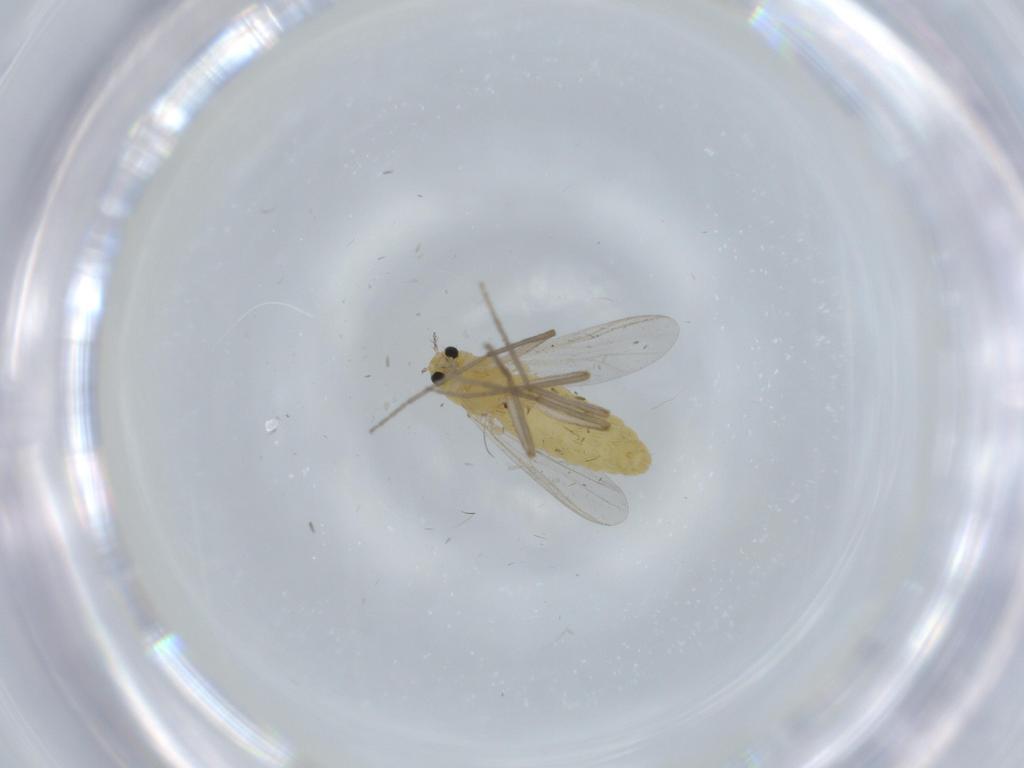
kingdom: Animalia
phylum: Arthropoda
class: Insecta
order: Diptera
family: Chironomidae
